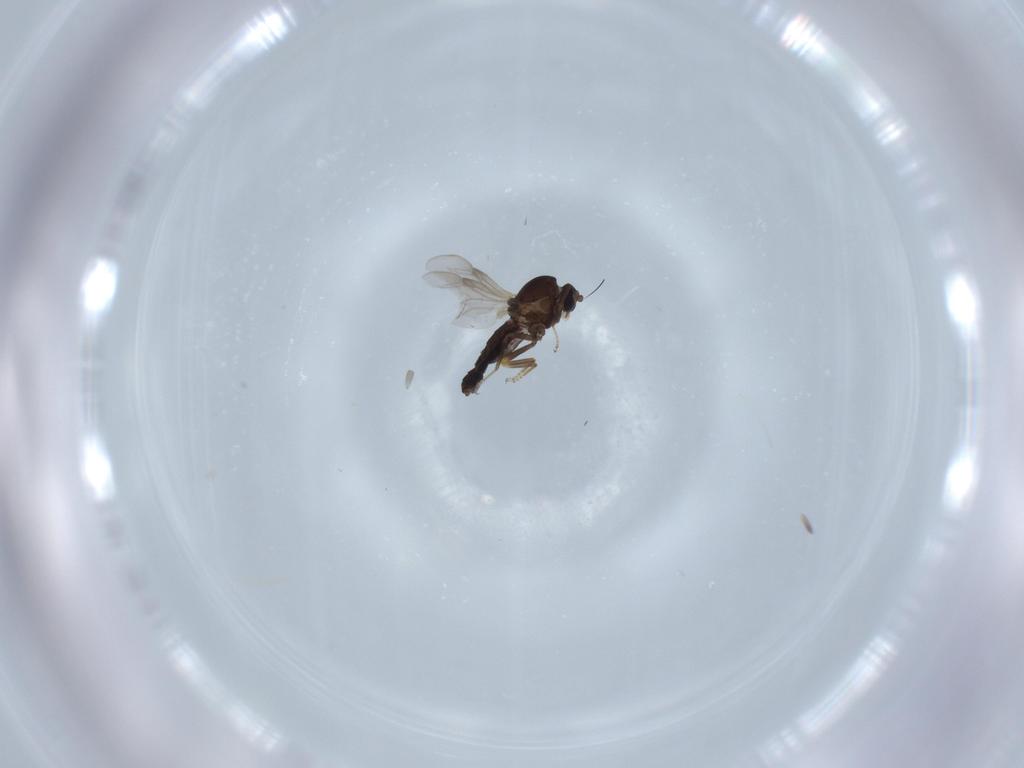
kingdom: Animalia
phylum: Arthropoda
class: Insecta
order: Diptera
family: Ceratopogonidae
